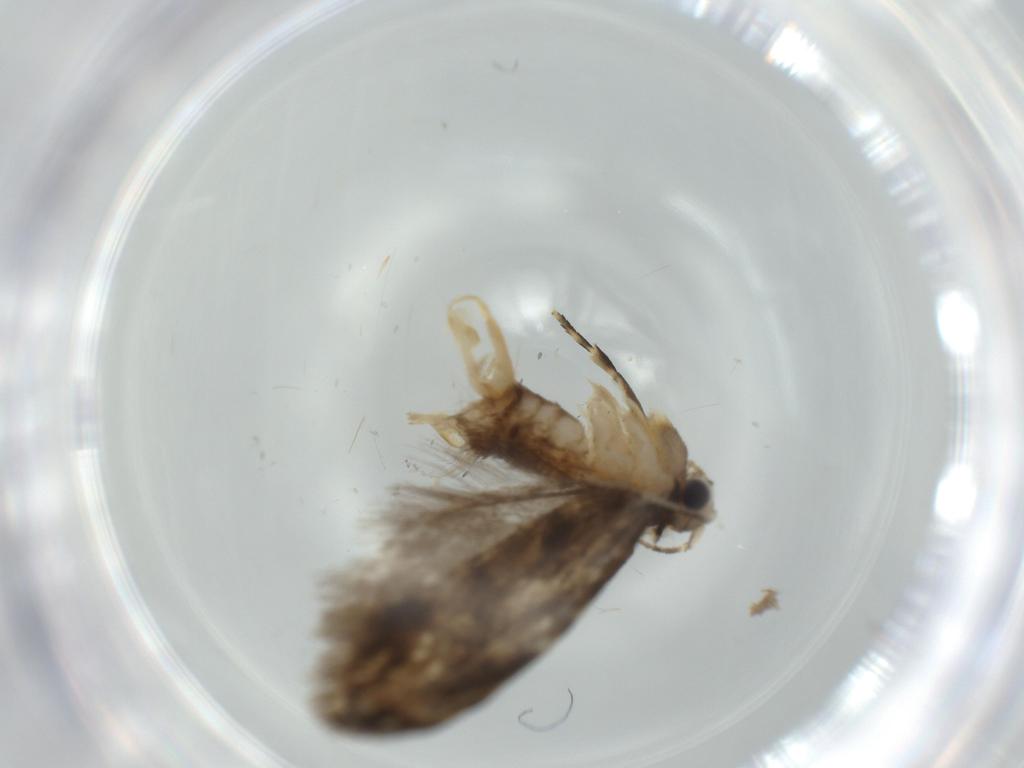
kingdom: Animalia
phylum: Arthropoda
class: Insecta
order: Lepidoptera
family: Tineidae
